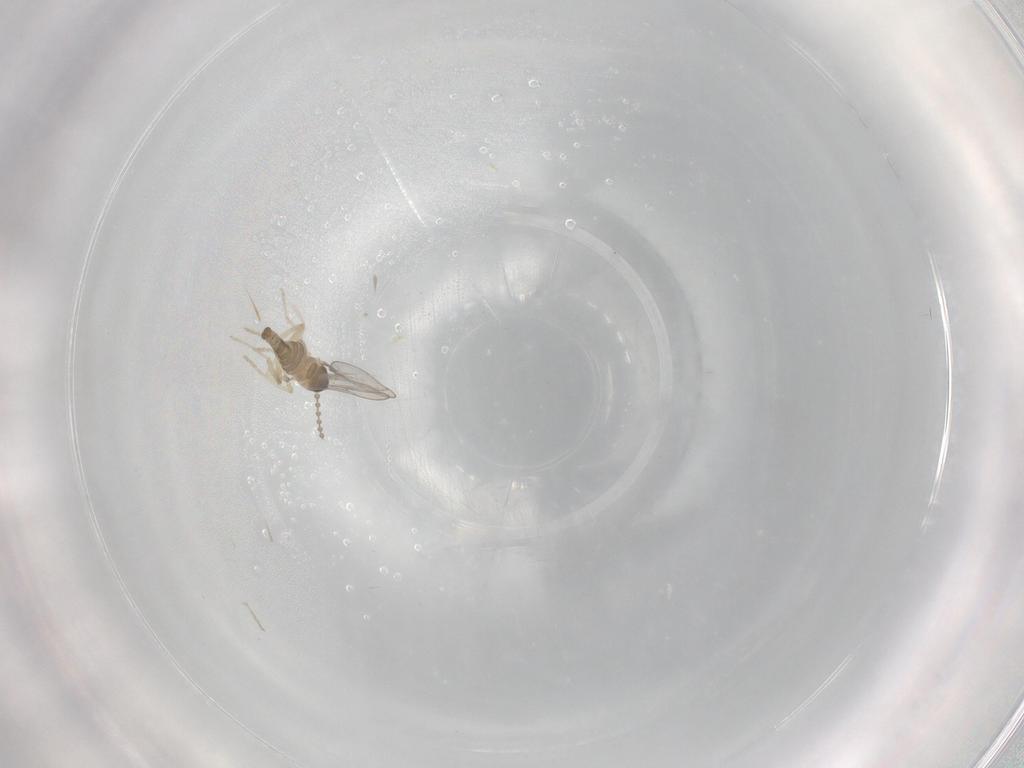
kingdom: Animalia
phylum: Arthropoda
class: Insecta
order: Diptera
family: Cecidomyiidae
